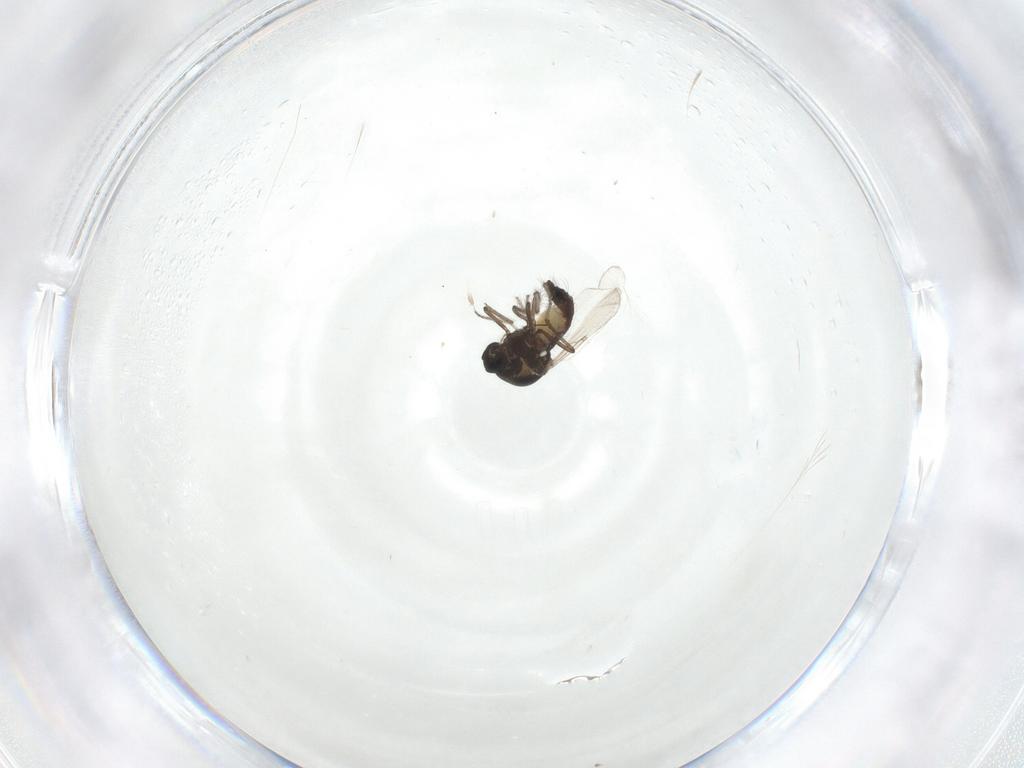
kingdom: Animalia
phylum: Arthropoda
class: Insecta
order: Diptera
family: Ceratopogonidae
